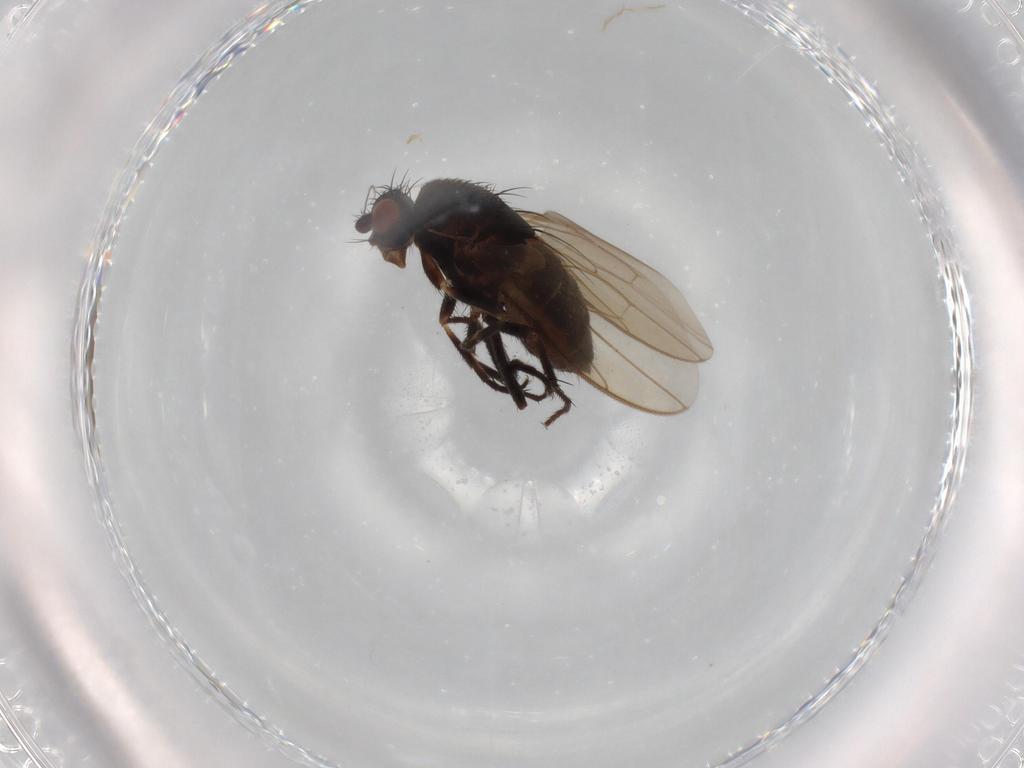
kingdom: Animalia
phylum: Arthropoda
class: Insecta
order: Diptera
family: Sphaeroceridae
